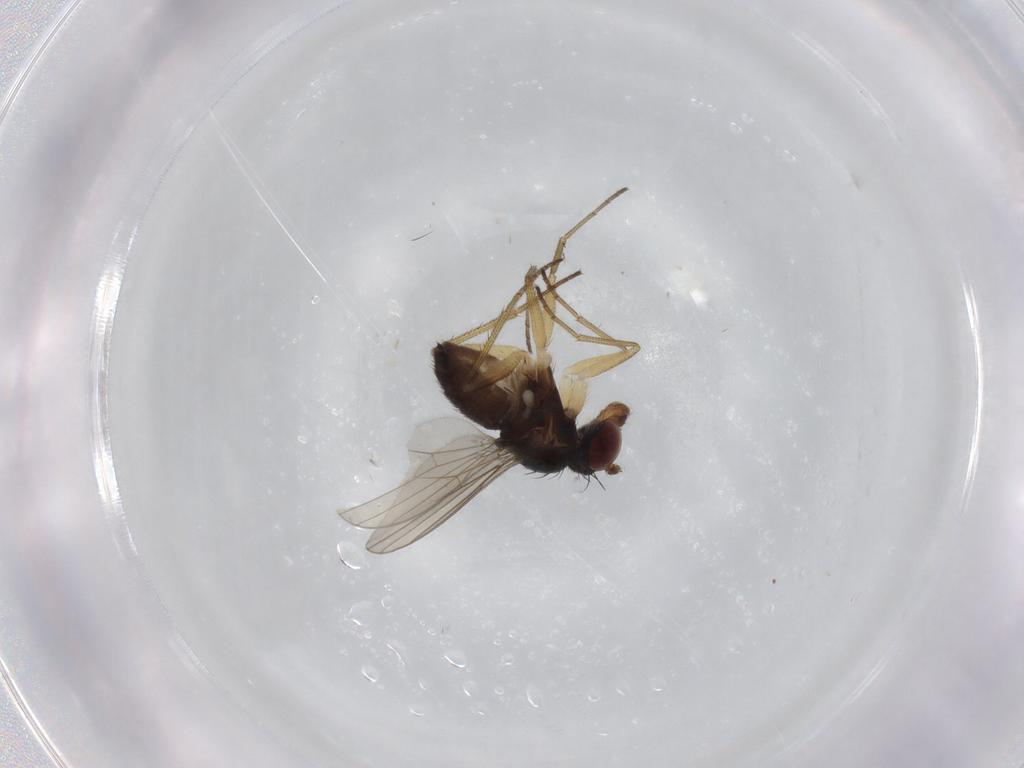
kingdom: Animalia
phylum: Arthropoda
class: Insecta
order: Diptera
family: Dolichopodidae
